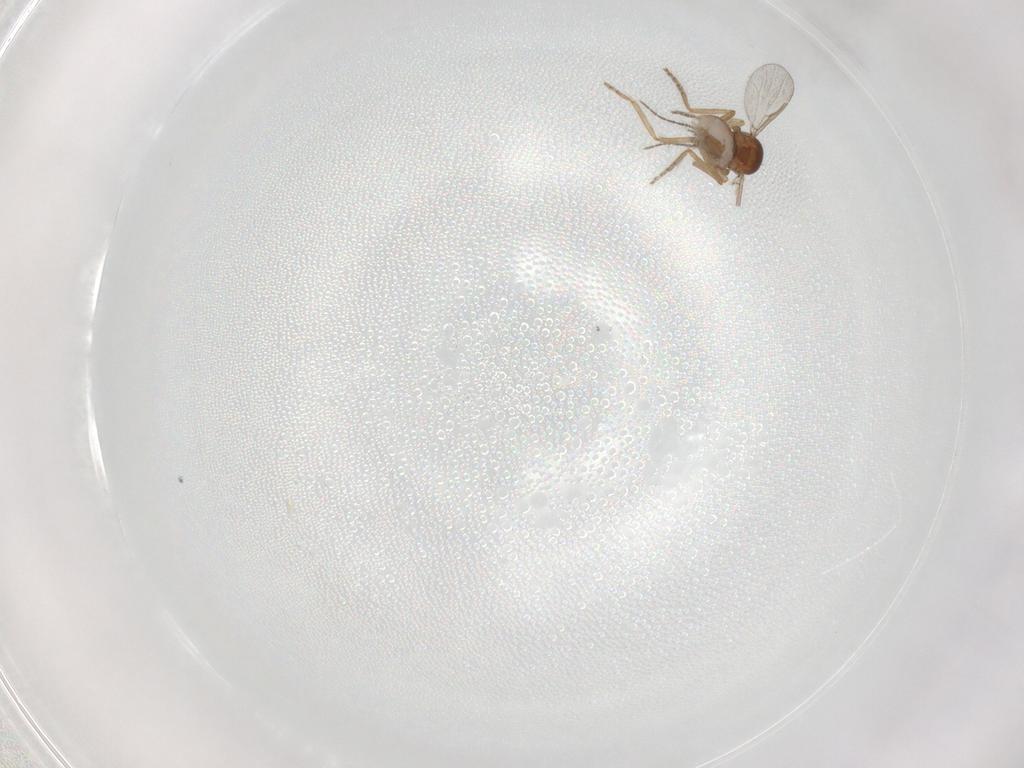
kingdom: Animalia
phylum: Arthropoda
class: Insecta
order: Diptera
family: Ceratopogonidae
